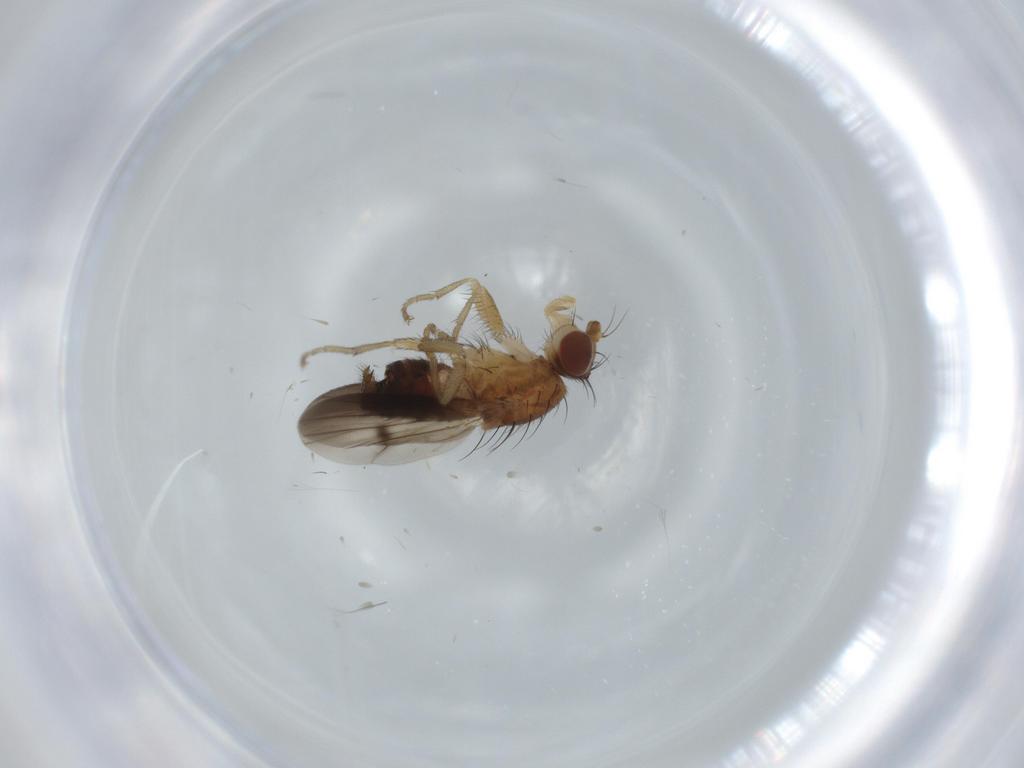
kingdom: Animalia
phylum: Arthropoda
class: Insecta
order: Diptera
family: Heleomyzidae
